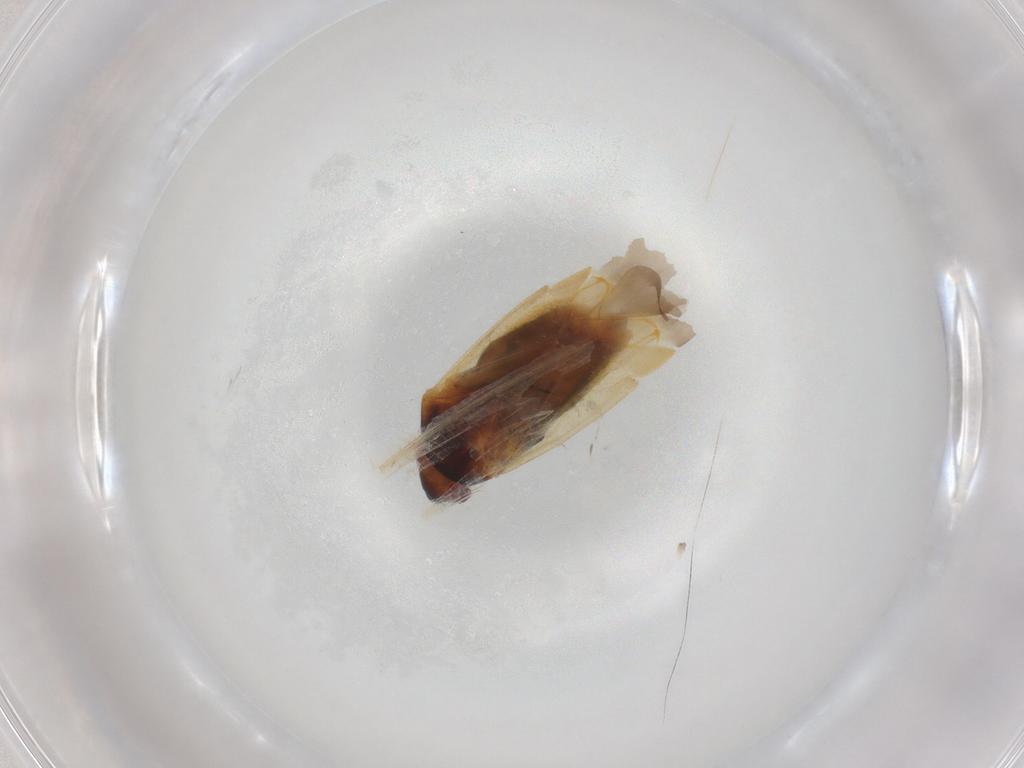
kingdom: Animalia
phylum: Arthropoda
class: Insecta
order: Hemiptera
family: Miridae
